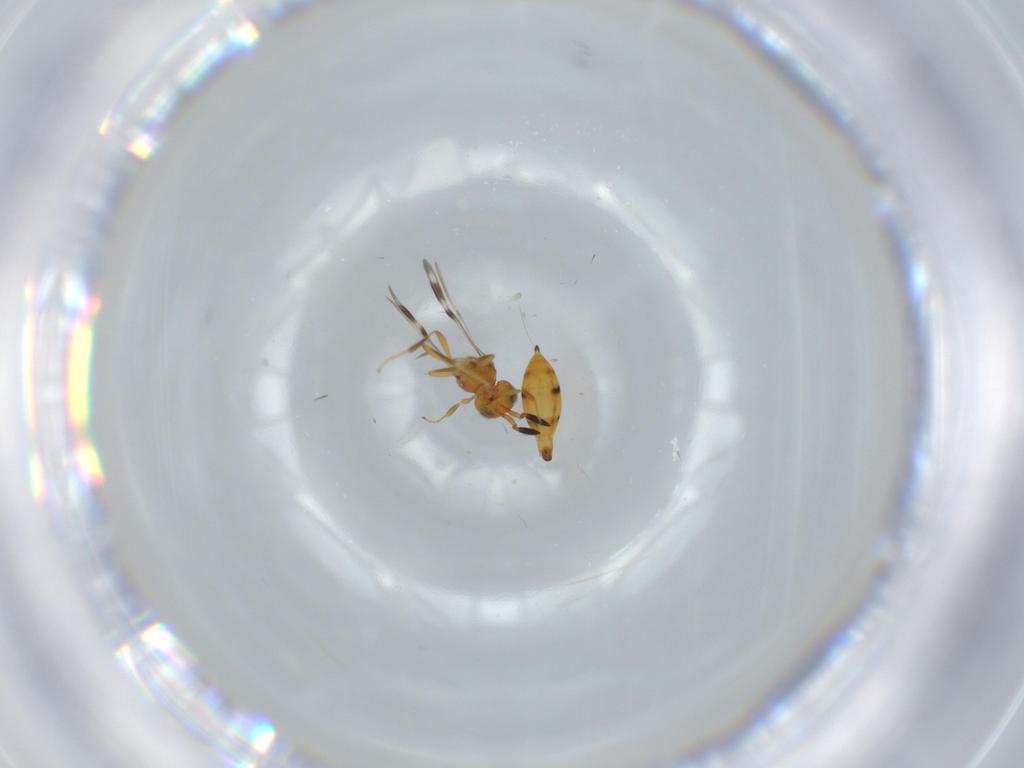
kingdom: Animalia
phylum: Arthropoda
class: Insecta
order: Hymenoptera
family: Scelionidae
